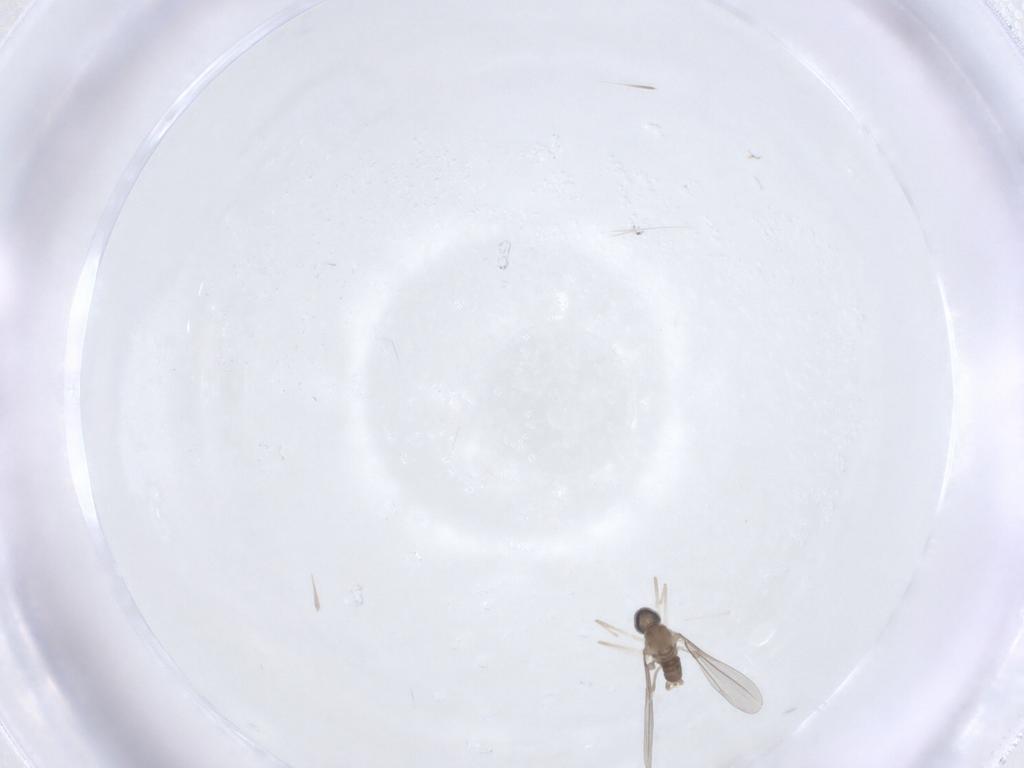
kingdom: Animalia
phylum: Arthropoda
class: Insecta
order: Diptera
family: Cecidomyiidae
